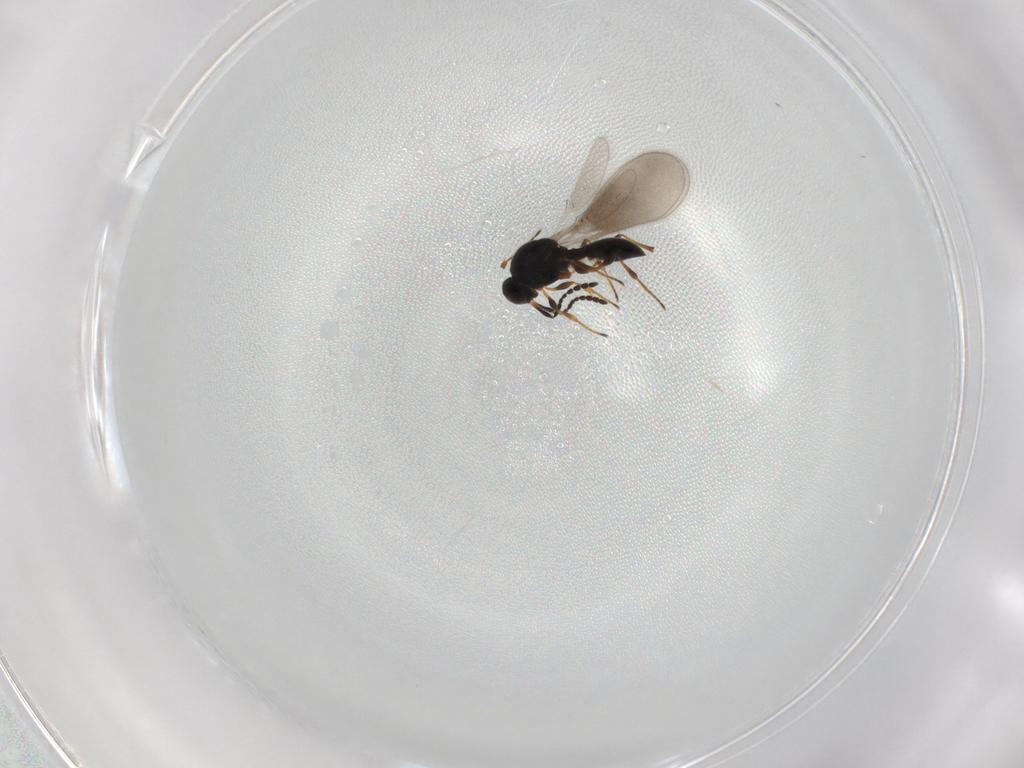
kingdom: Animalia
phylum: Arthropoda
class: Insecta
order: Hymenoptera
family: Platygastridae
